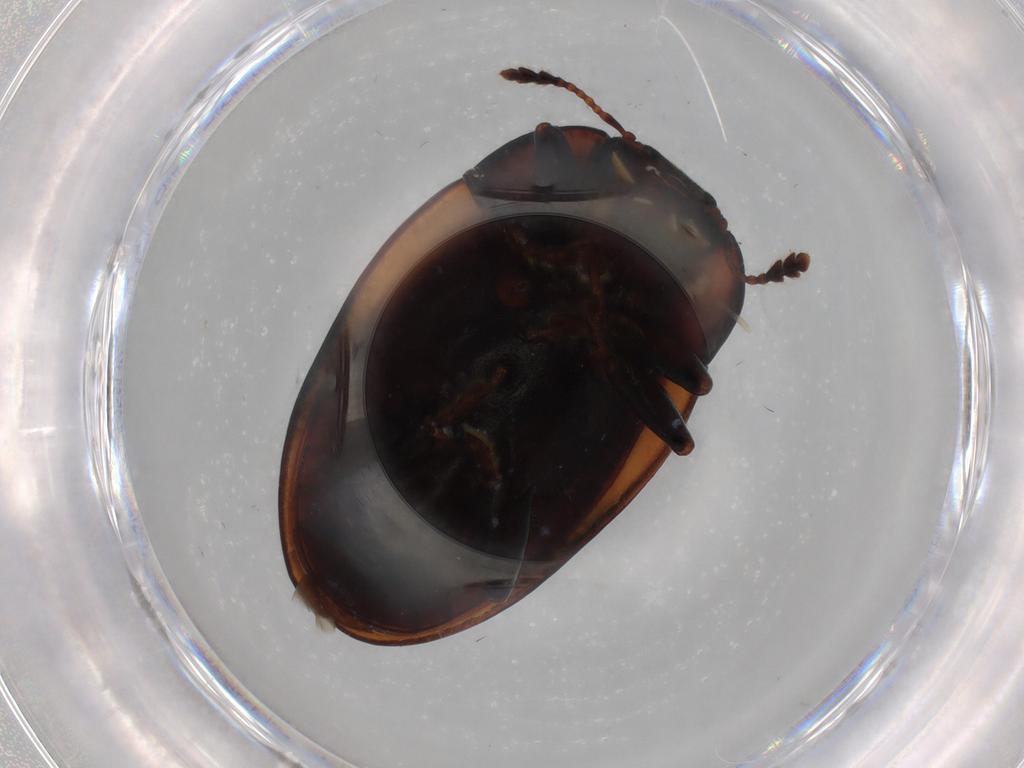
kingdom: Animalia
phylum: Arthropoda
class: Insecta
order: Coleoptera
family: Erotylidae
